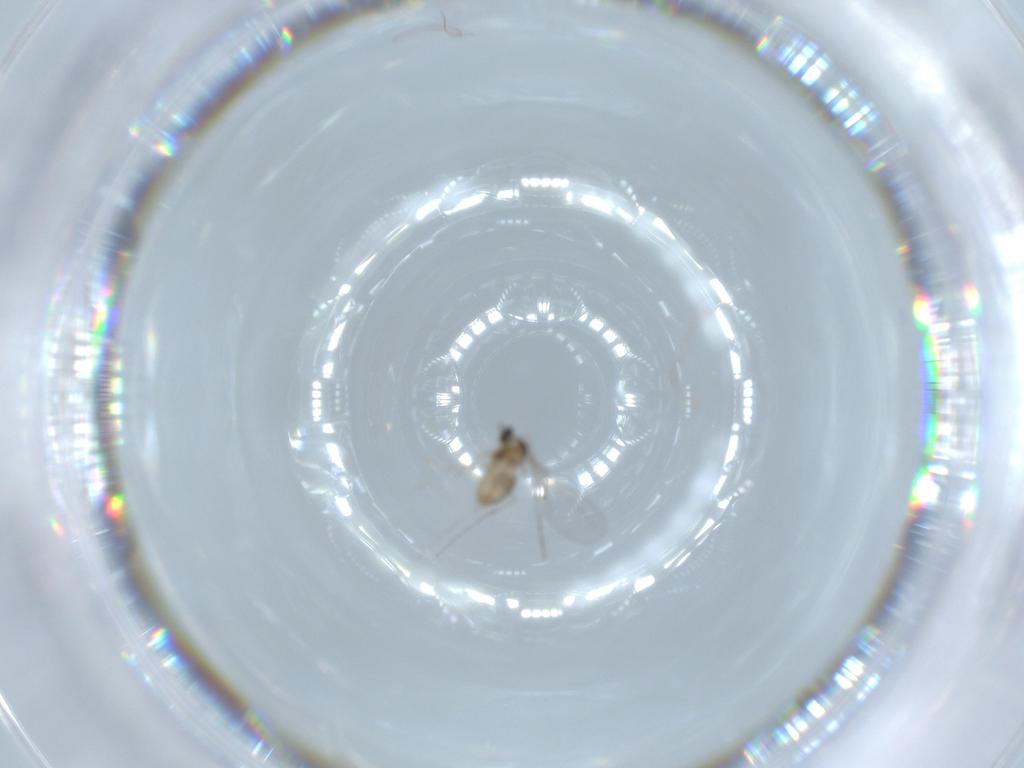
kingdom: Animalia
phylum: Arthropoda
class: Insecta
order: Diptera
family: Cecidomyiidae
